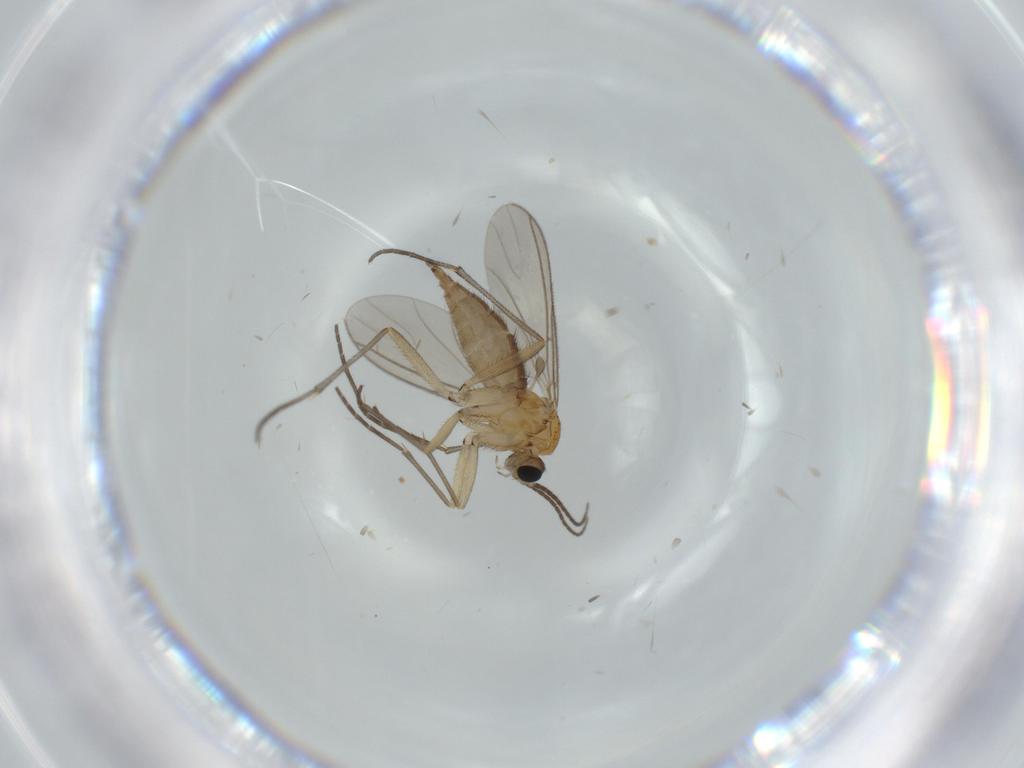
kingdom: Animalia
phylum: Arthropoda
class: Insecta
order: Diptera
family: Sciaridae
